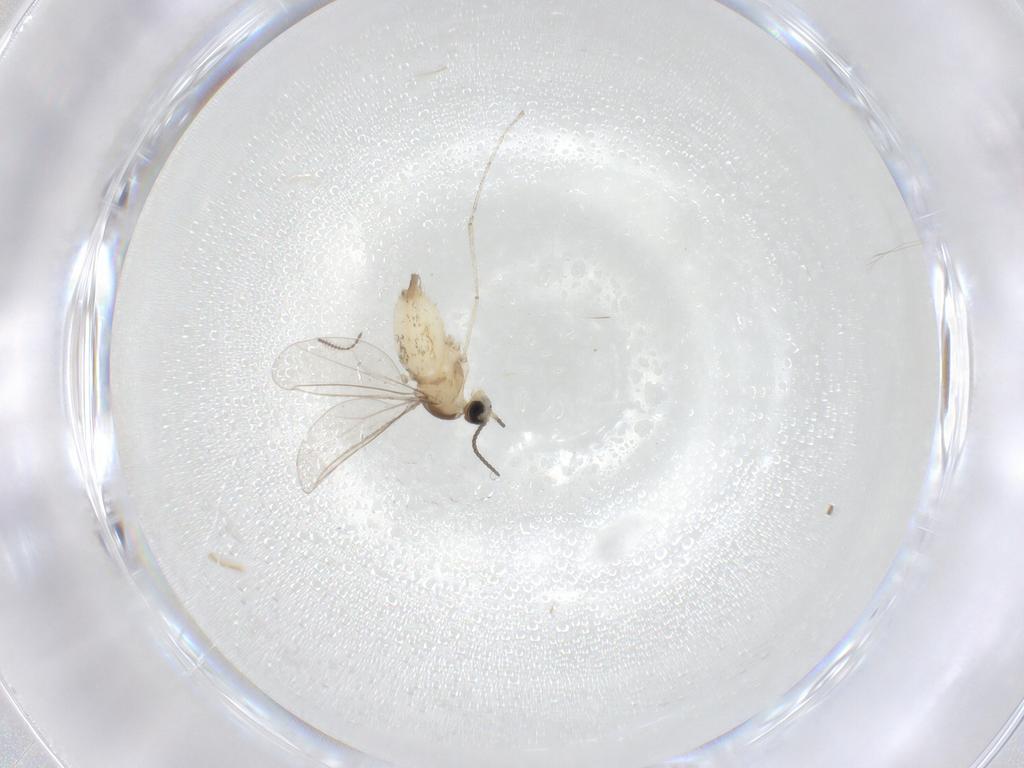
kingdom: Animalia
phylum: Arthropoda
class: Insecta
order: Diptera
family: Cecidomyiidae
